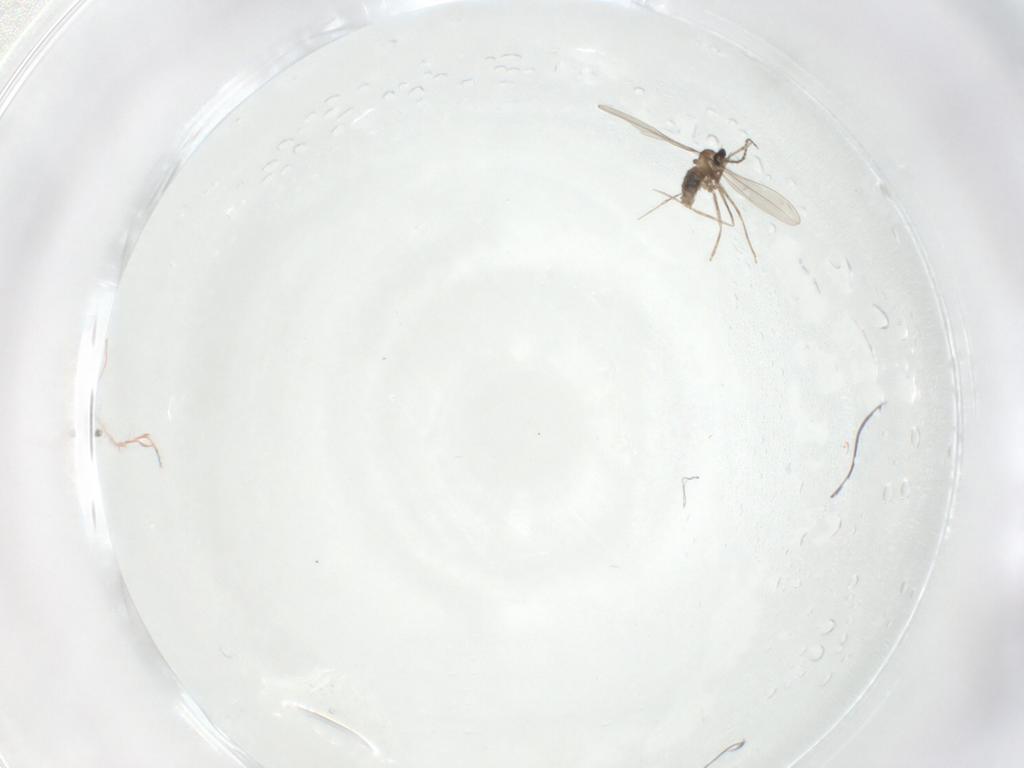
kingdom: Animalia
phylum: Arthropoda
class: Insecta
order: Diptera
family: Cecidomyiidae
